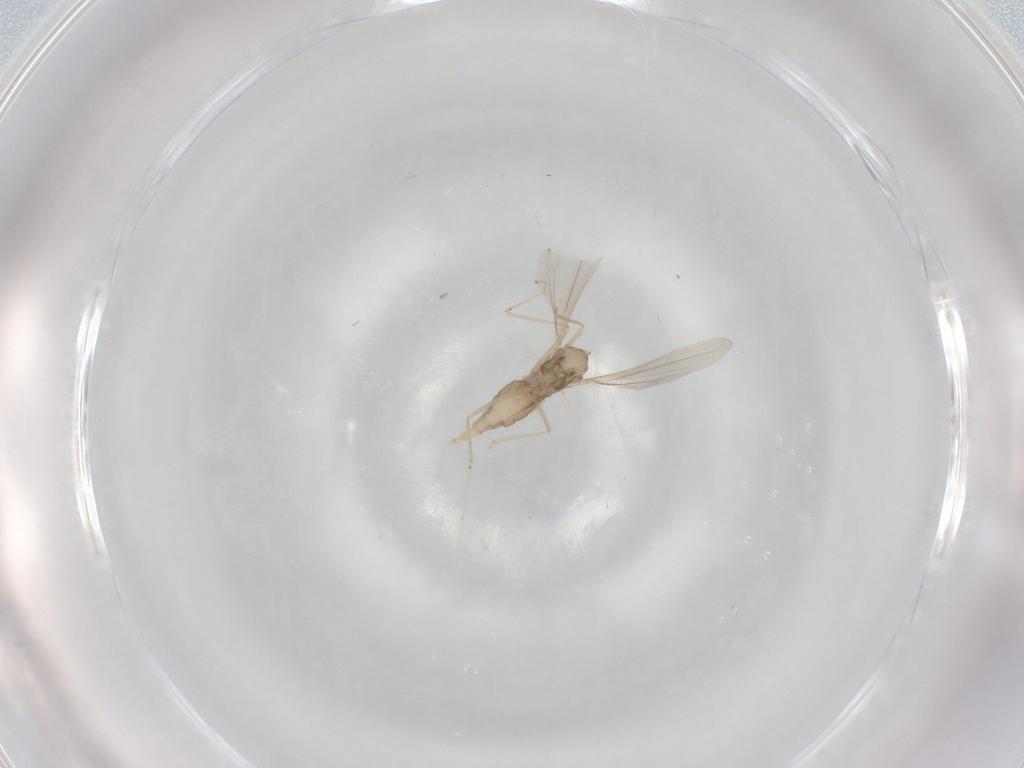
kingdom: Animalia
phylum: Arthropoda
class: Insecta
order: Diptera
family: Cecidomyiidae
